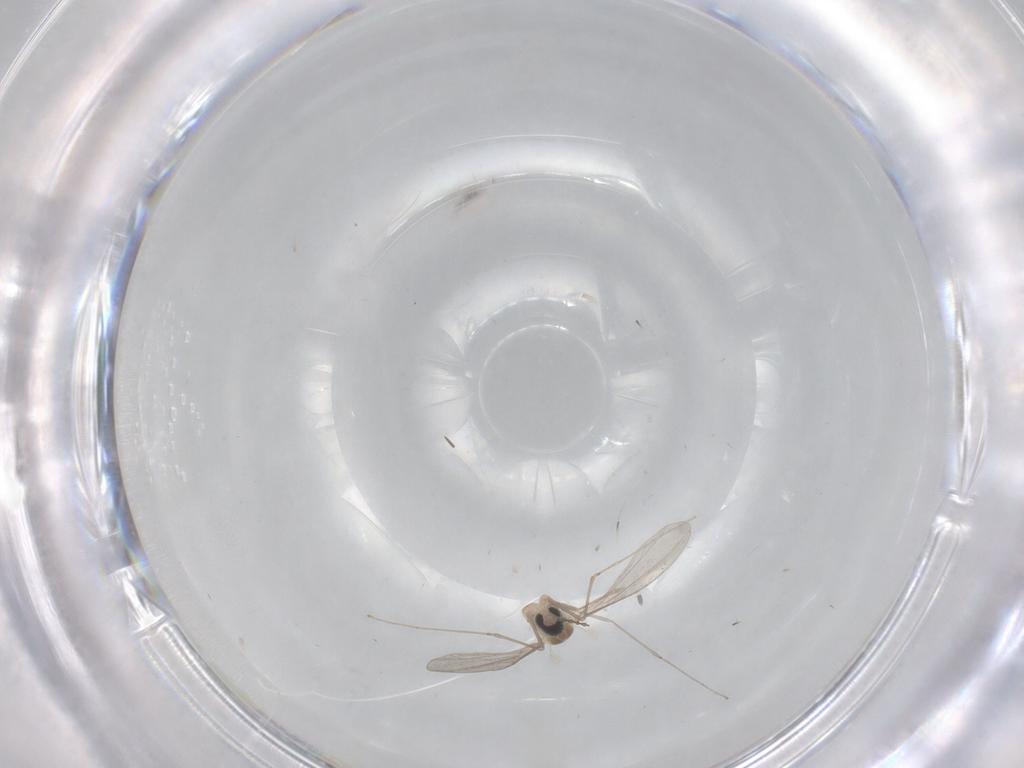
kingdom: Animalia
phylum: Arthropoda
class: Insecta
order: Diptera
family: Cecidomyiidae
